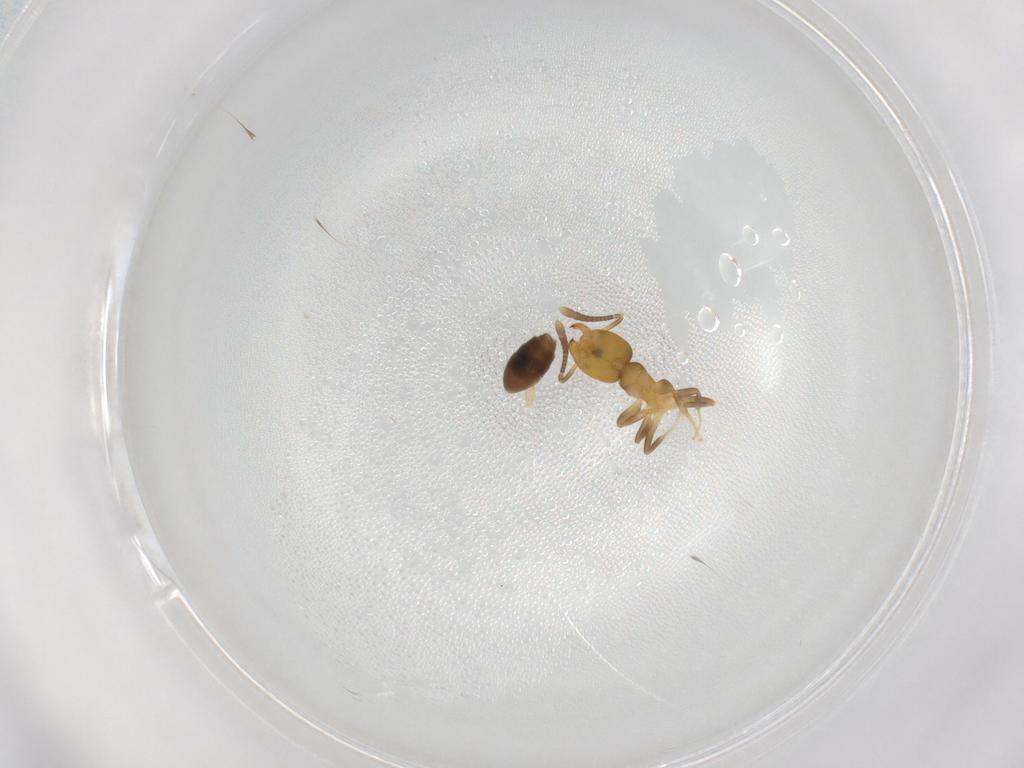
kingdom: Animalia
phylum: Arthropoda
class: Insecta
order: Hymenoptera
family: Formicidae
